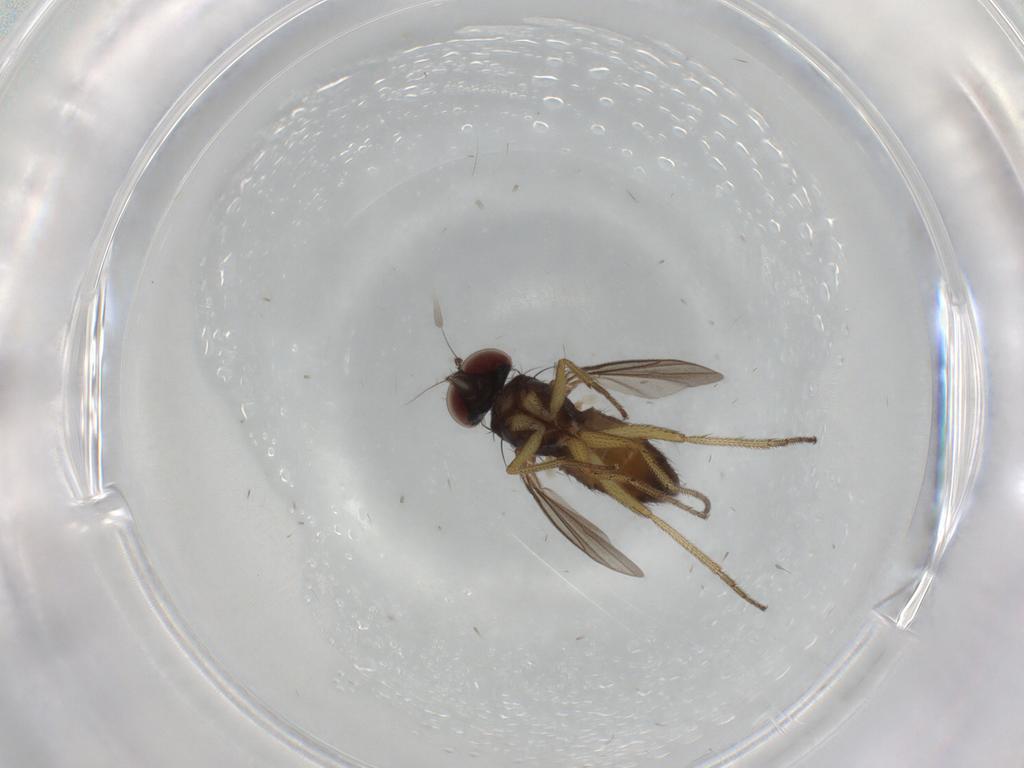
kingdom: Animalia
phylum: Arthropoda
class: Insecta
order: Diptera
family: Dolichopodidae
